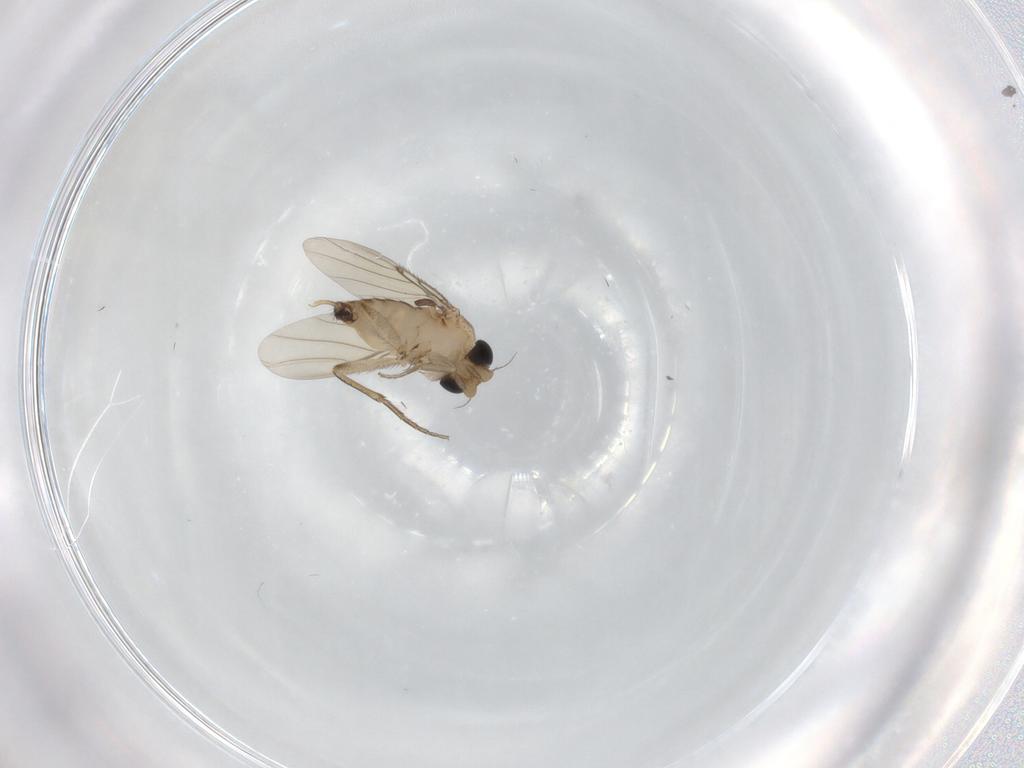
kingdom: Animalia
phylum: Arthropoda
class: Insecta
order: Diptera
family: Phoridae
